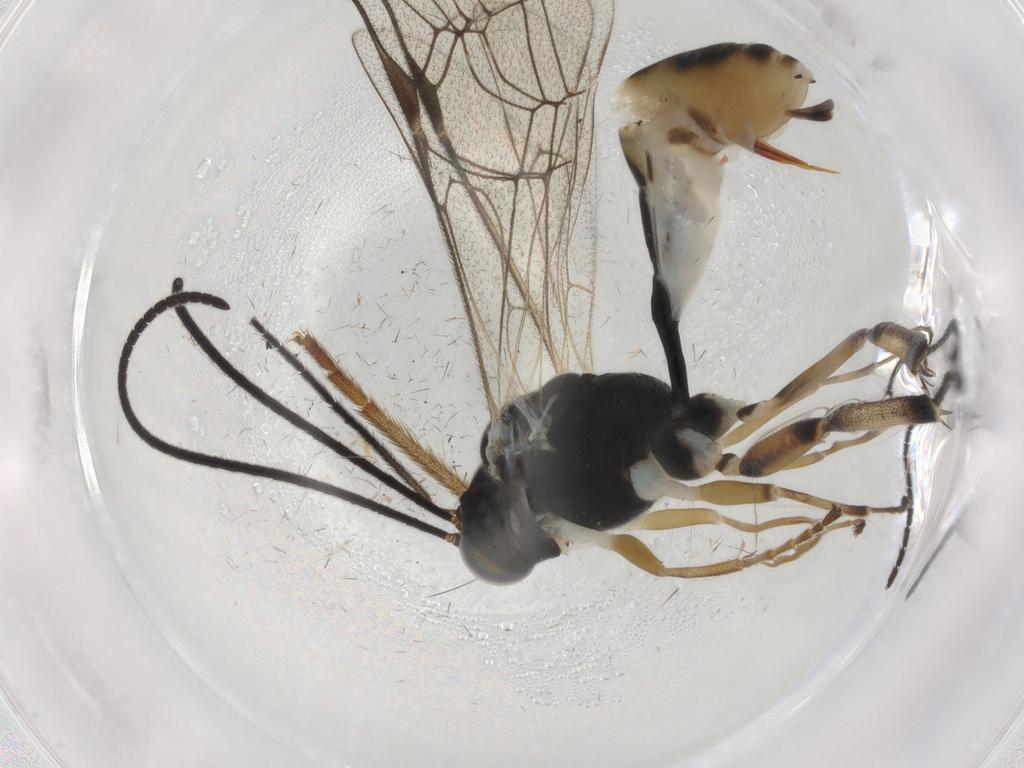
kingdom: Animalia
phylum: Arthropoda
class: Insecta
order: Hymenoptera
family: Diapriidae
